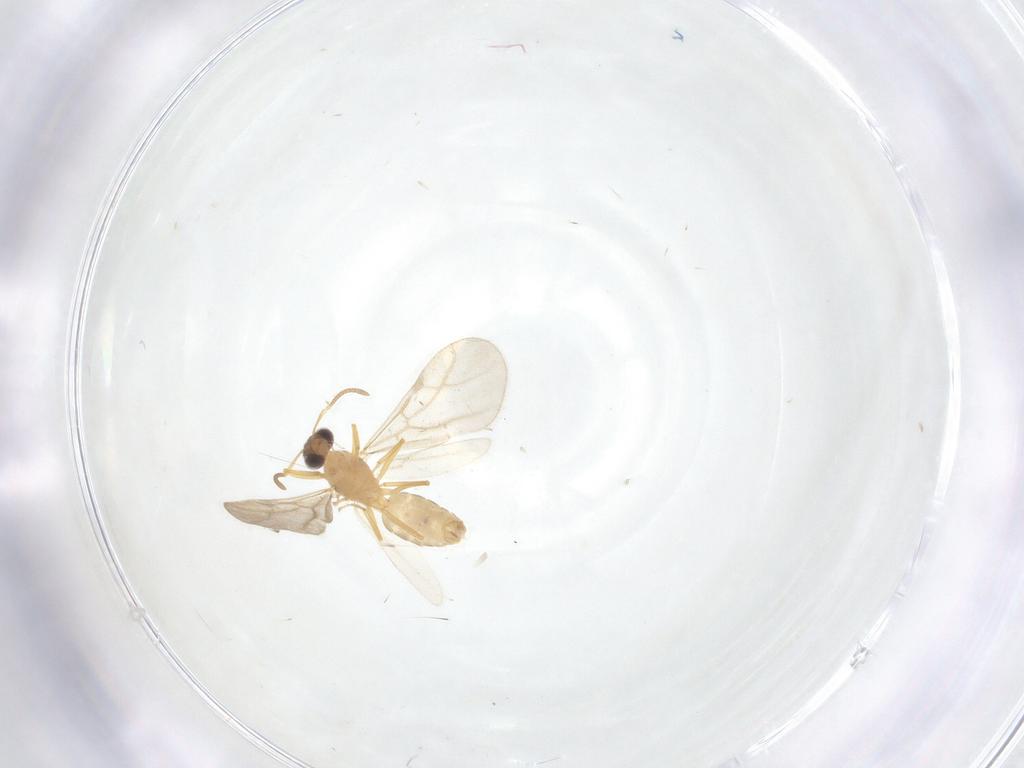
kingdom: Animalia
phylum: Arthropoda
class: Insecta
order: Hymenoptera
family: Formicidae
